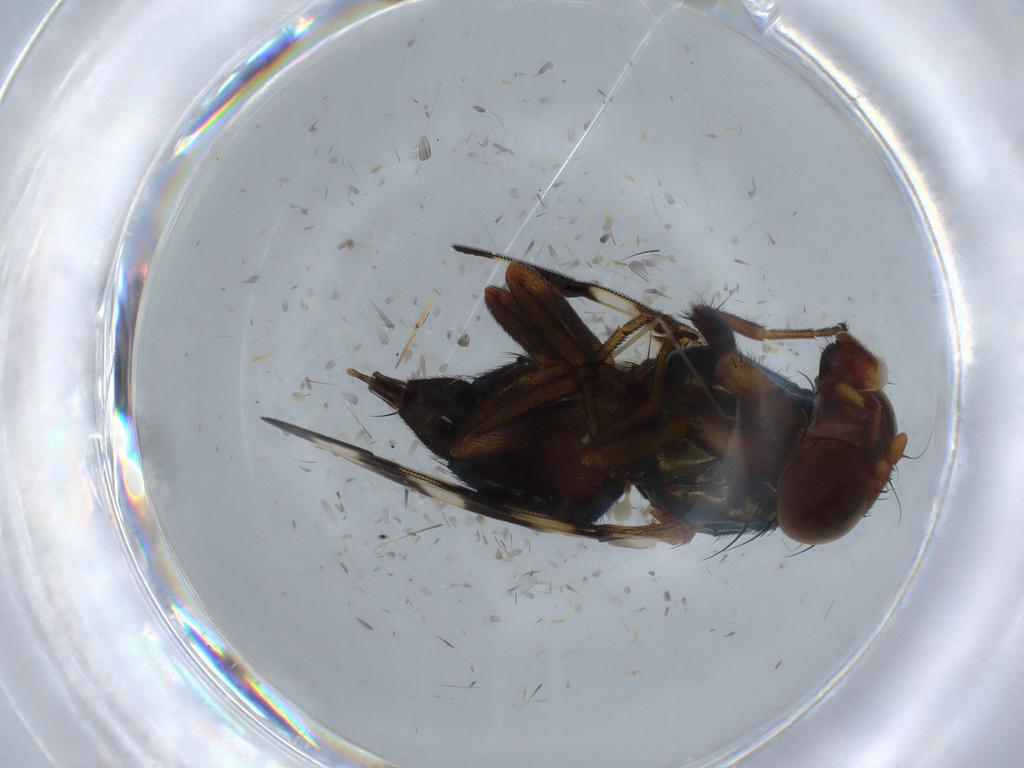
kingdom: Animalia
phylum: Arthropoda
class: Insecta
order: Diptera
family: Ulidiidae
